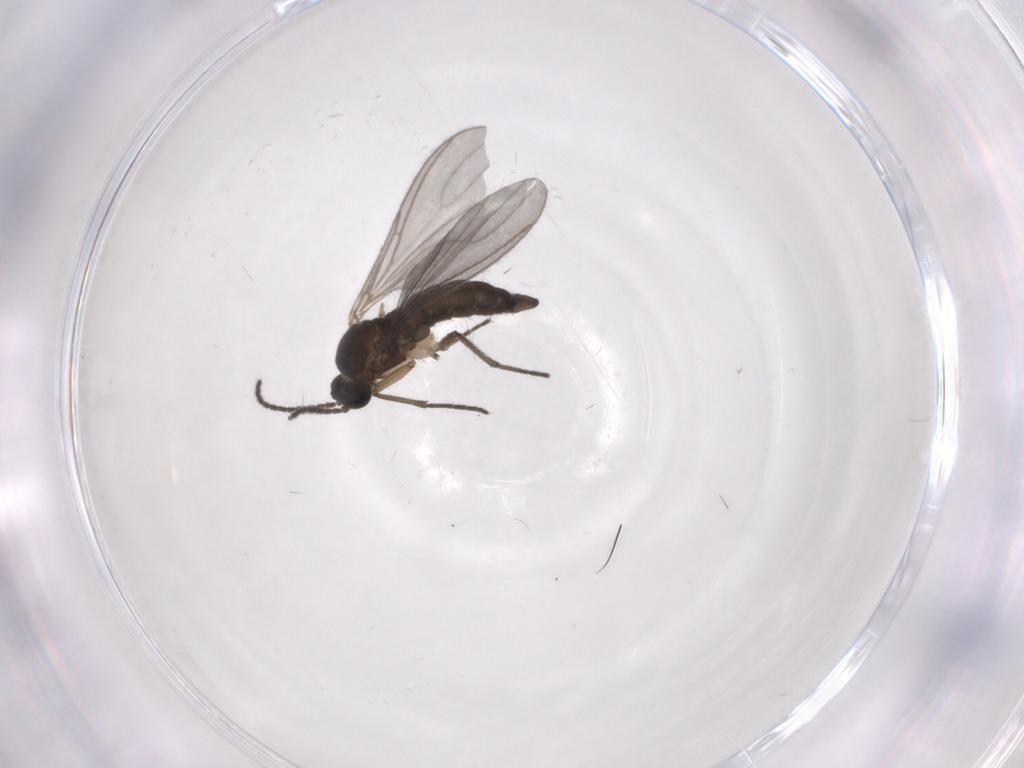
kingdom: Animalia
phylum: Arthropoda
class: Insecta
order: Diptera
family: Sciaridae
